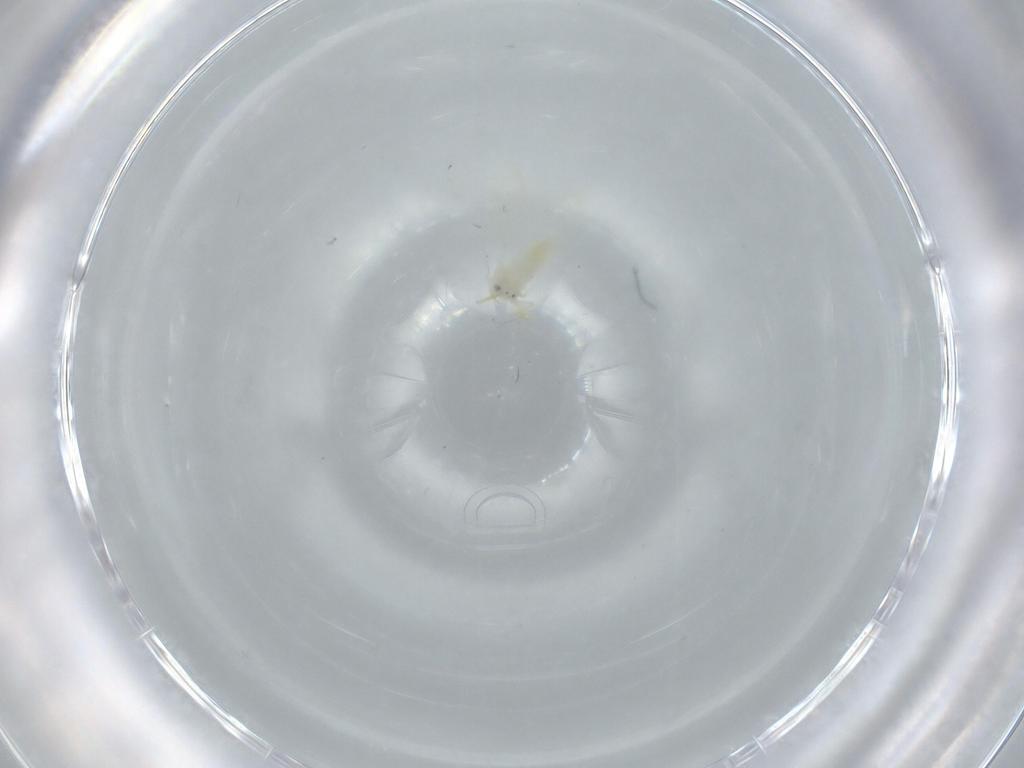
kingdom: Animalia
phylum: Arthropoda
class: Insecta
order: Hemiptera
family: Aleyrodidae
